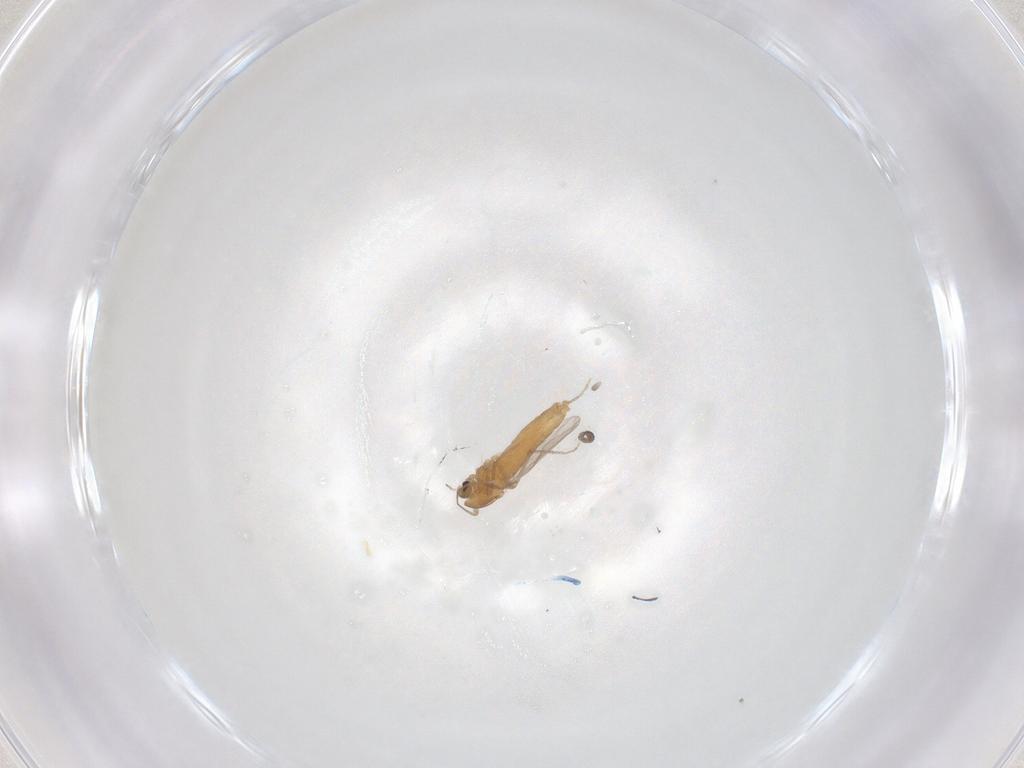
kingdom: Animalia
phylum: Arthropoda
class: Insecta
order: Diptera
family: Chironomidae
